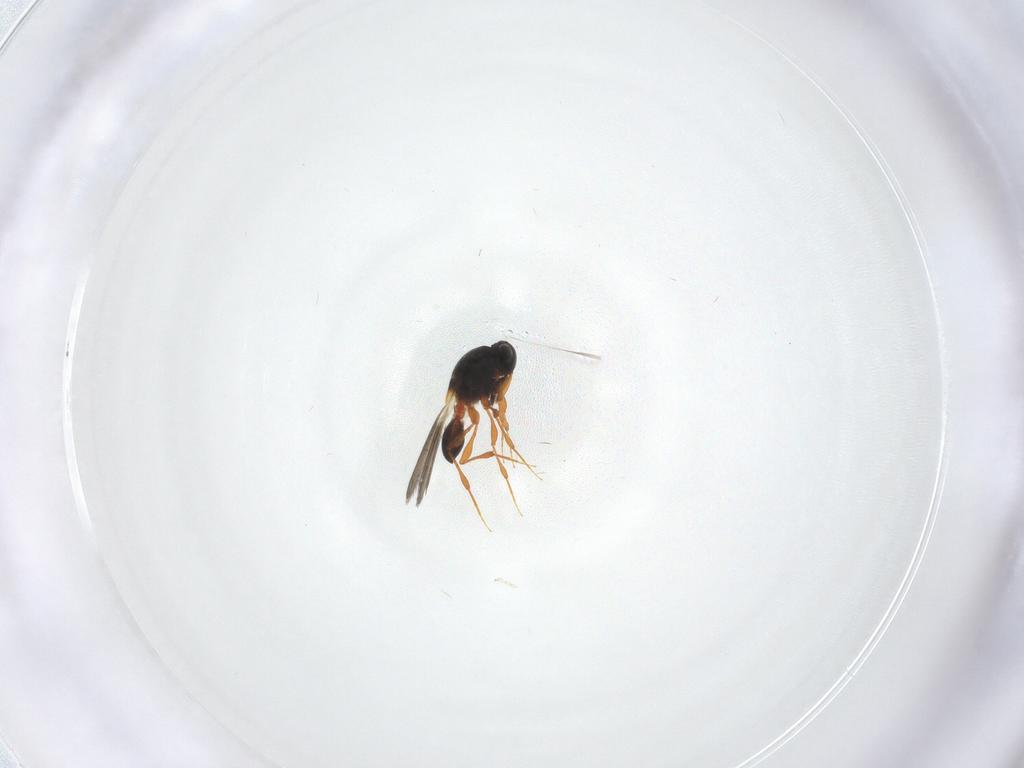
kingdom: Animalia
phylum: Arthropoda
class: Insecta
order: Hymenoptera
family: Platygastridae
